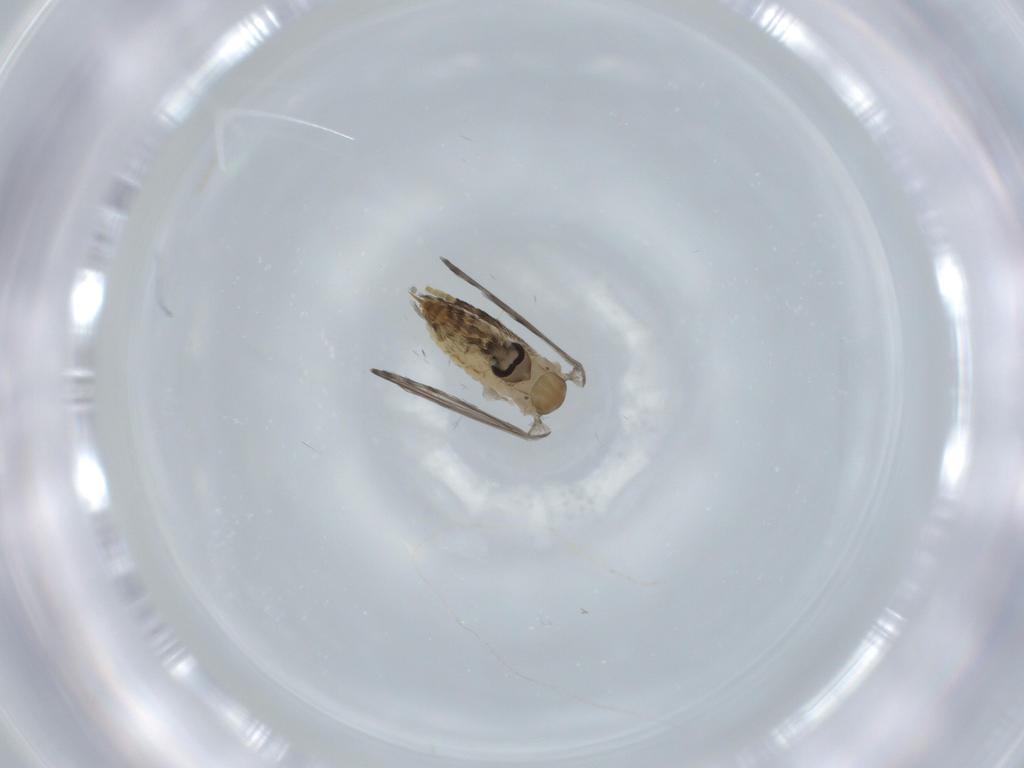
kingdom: Animalia
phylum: Arthropoda
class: Insecta
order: Diptera
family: Psychodidae
